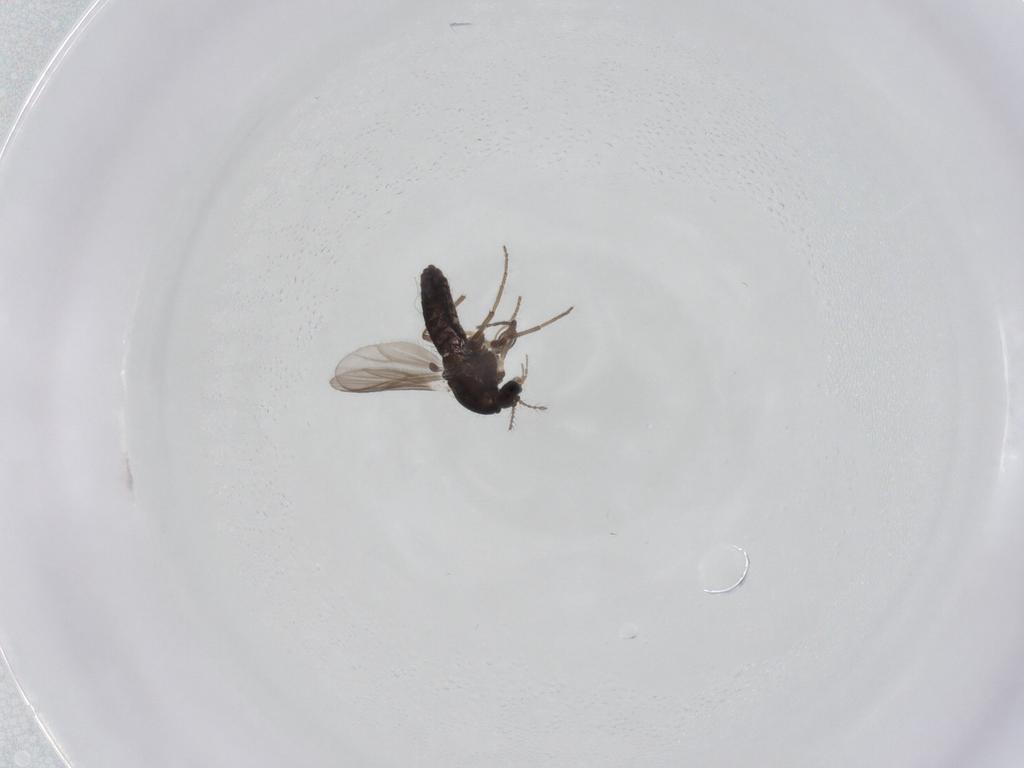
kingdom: Animalia
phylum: Arthropoda
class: Insecta
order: Diptera
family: Chironomidae
